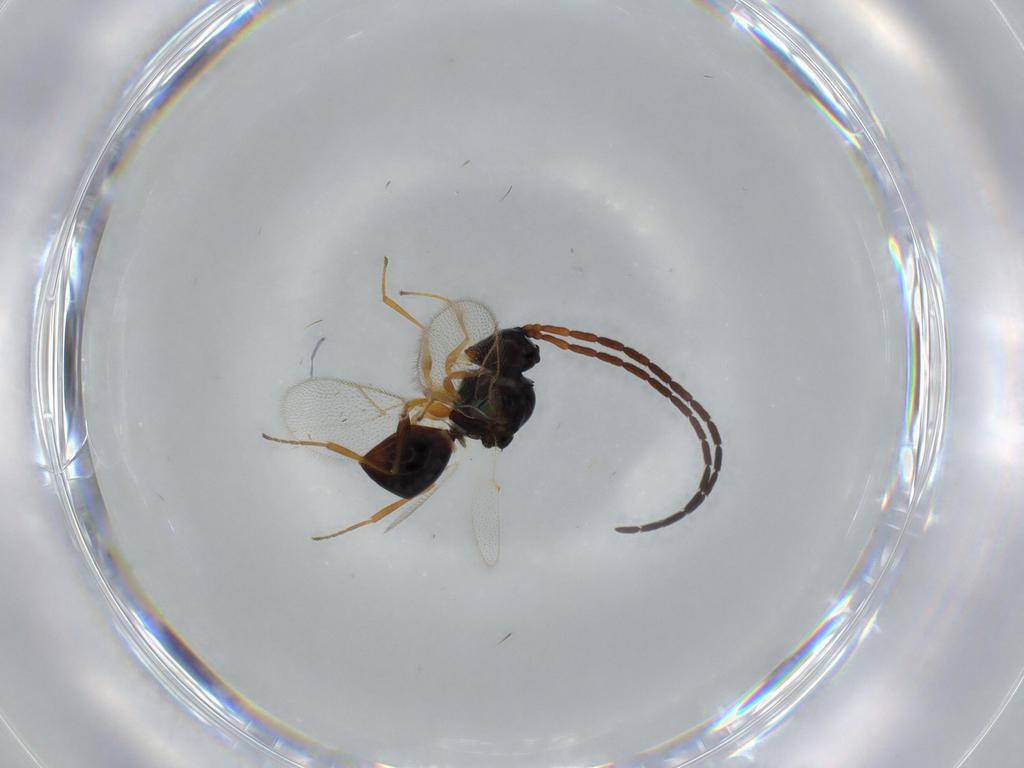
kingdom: Animalia
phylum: Arthropoda
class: Insecta
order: Hymenoptera
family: Figitidae
